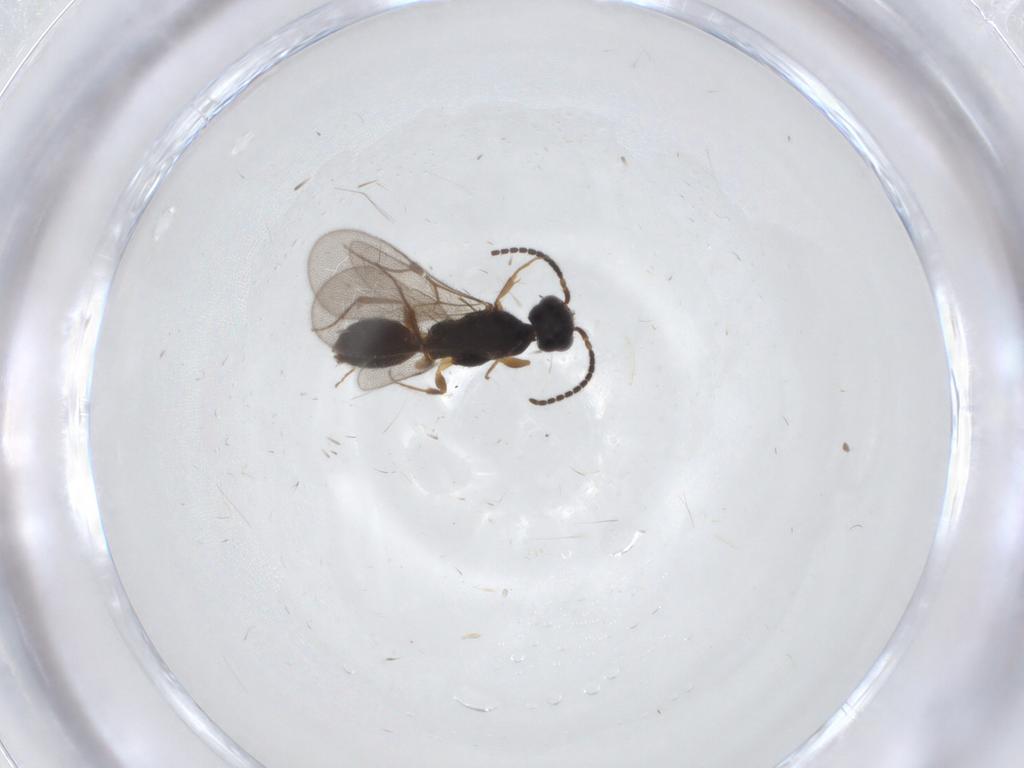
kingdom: Animalia
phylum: Arthropoda
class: Insecta
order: Hymenoptera
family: Bethylidae
